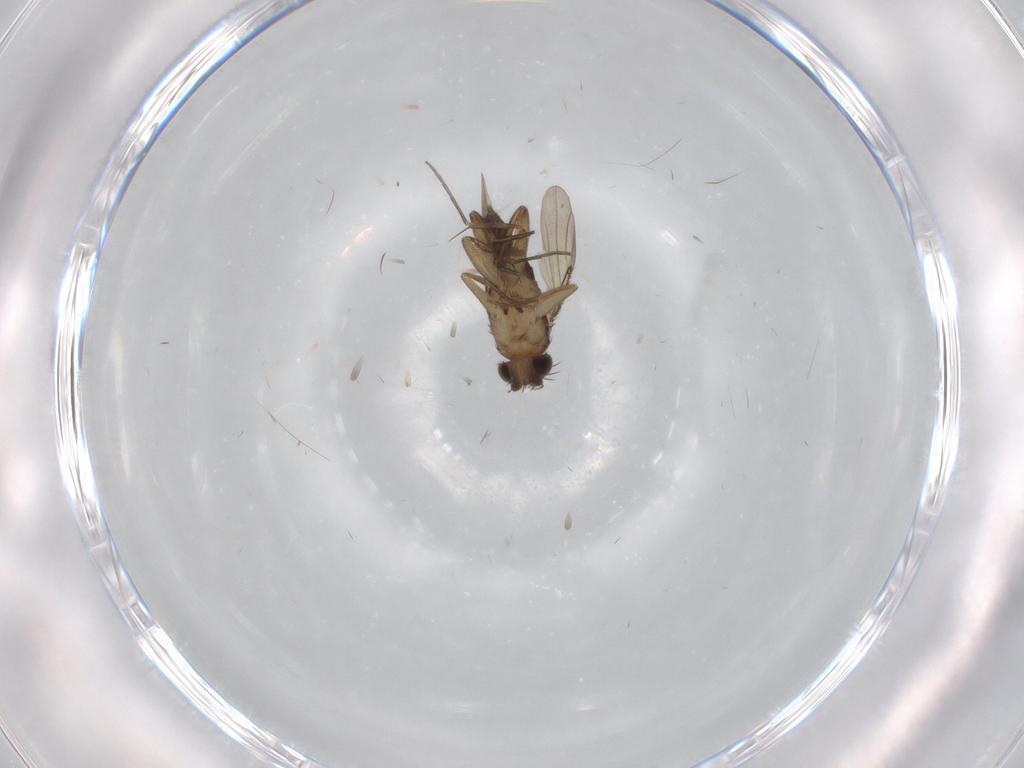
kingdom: Animalia
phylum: Arthropoda
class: Insecta
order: Diptera
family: Phoridae
